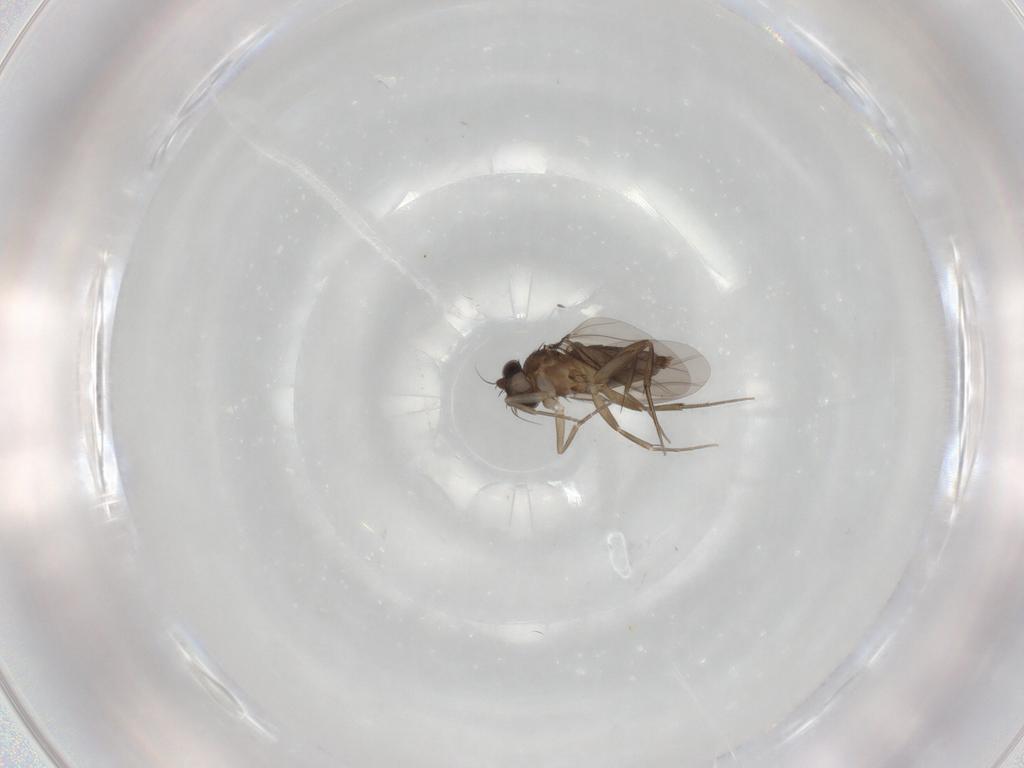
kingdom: Animalia
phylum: Arthropoda
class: Insecta
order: Diptera
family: Phoridae
